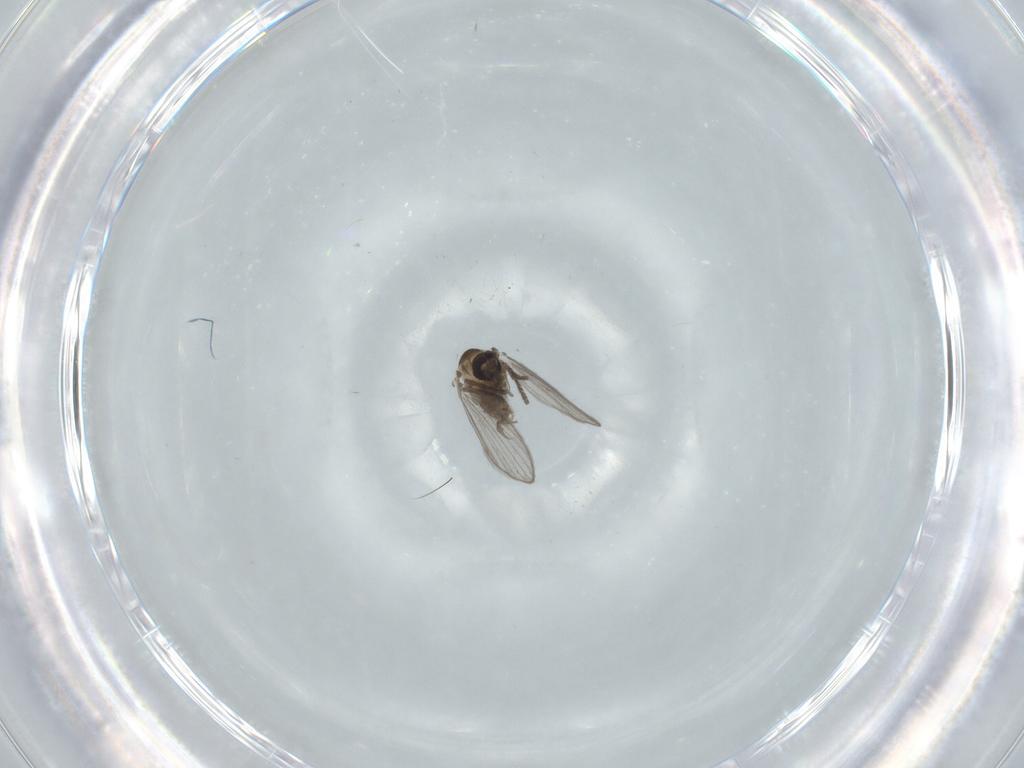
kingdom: Animalia
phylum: Arthropoda
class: Insecta
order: Diptera
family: Psychodidae
